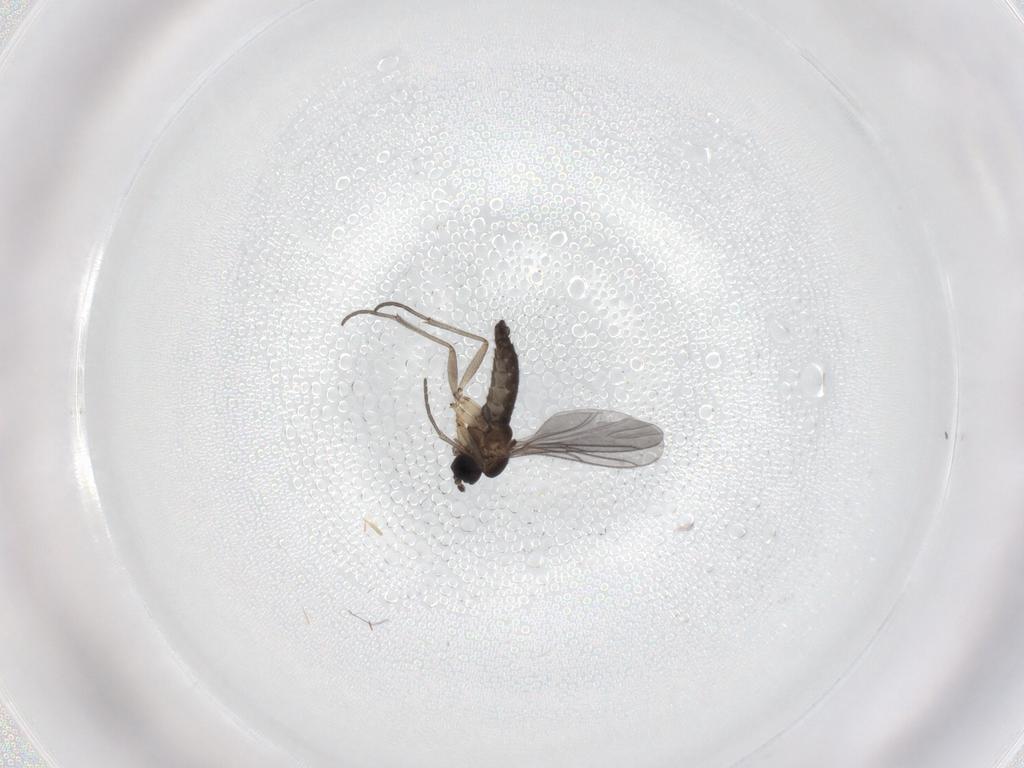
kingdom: Animalia
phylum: Arthropoda
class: Insecta
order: Diptera
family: Sciaridae
